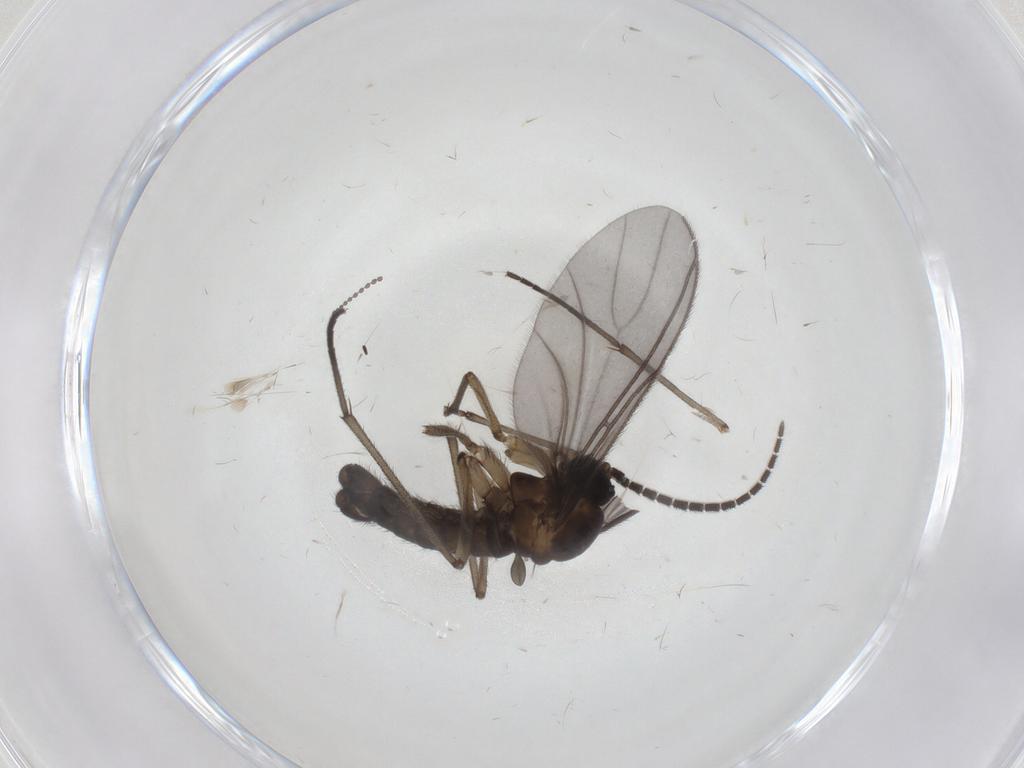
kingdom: Animalia
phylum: Arthropoda
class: Insecta
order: Diptera
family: Sciaridae
